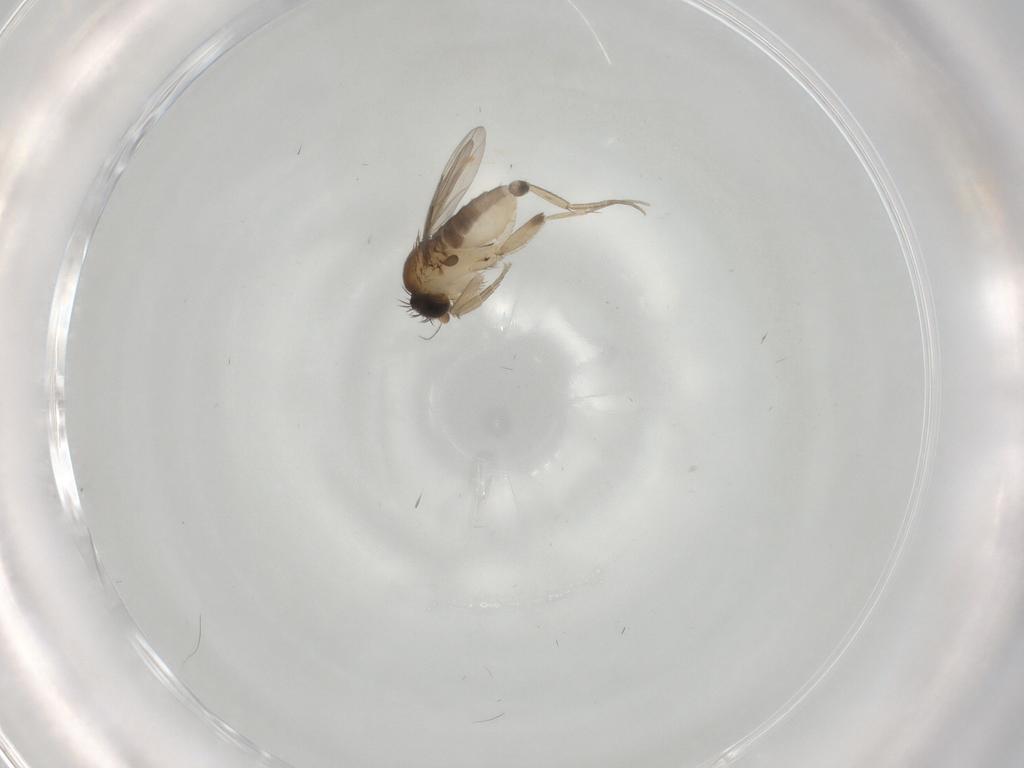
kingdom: Animalia
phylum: Arthropoda
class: Insecta
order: Diptera
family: Phoridae
